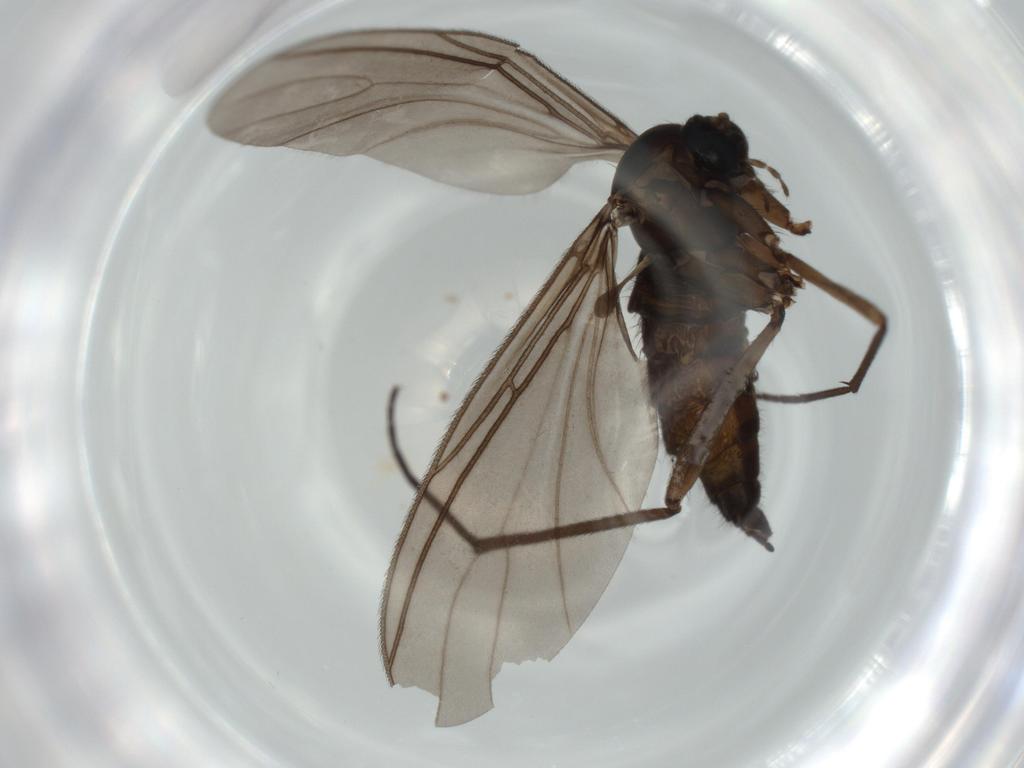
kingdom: Animalia
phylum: Arthropoda
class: Insecta
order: Diptera
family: Sciaridae
